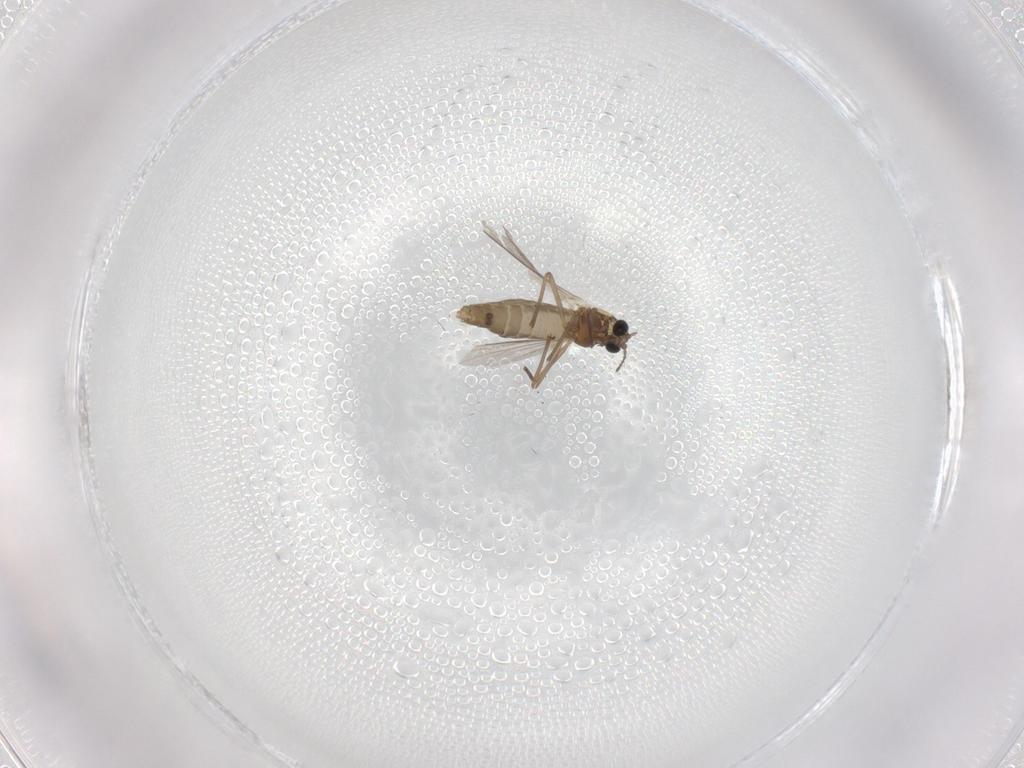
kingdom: Animalia
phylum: Arthropoda
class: Insecta
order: Diptera
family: Chironomidae
